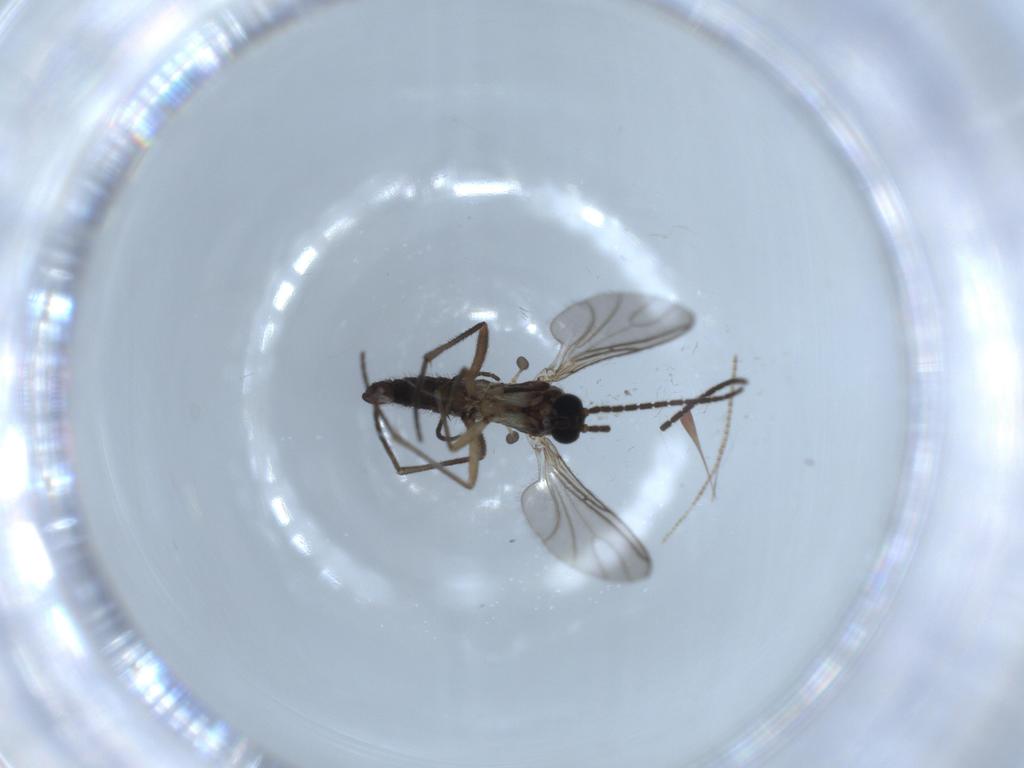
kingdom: Animalia
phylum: Arthropoda
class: Insecta
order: Diptera
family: Sciaridae
